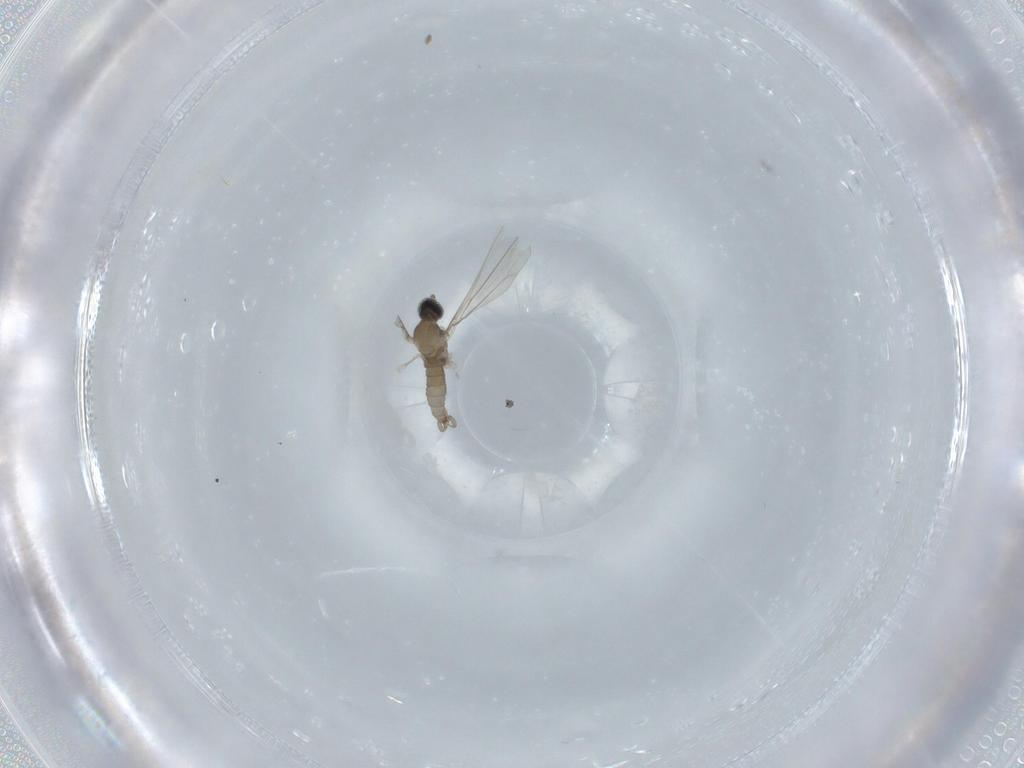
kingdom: Animalia
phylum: Arthropoda
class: Insecta
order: Diptera
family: Cecidomyiidae
